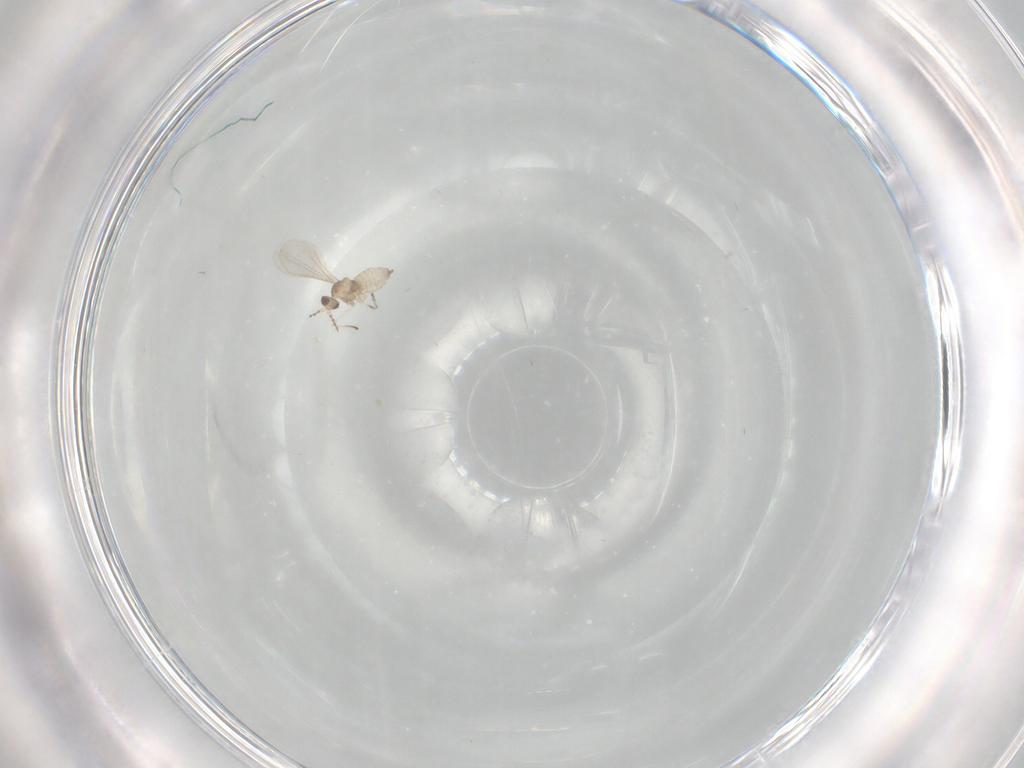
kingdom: Animalia
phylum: Arthropoda
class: Insecta
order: Diptera
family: Cecidomyiidae
